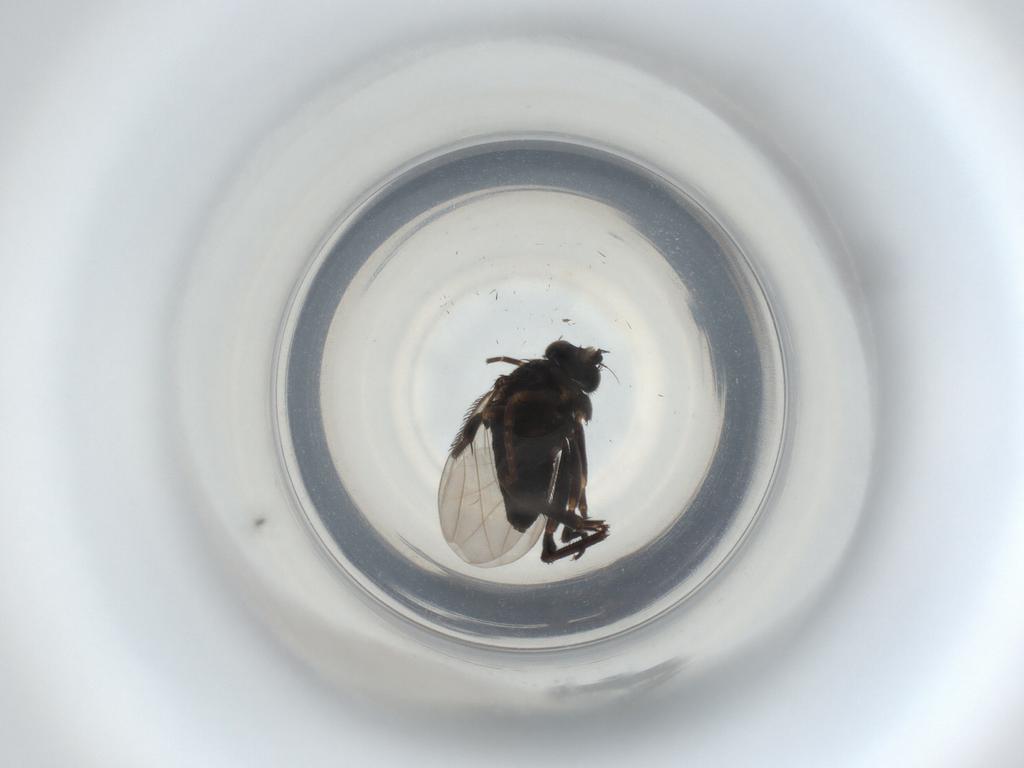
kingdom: Animalia
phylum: Arthropoda
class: Insecta
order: Diptera
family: Phoridae
